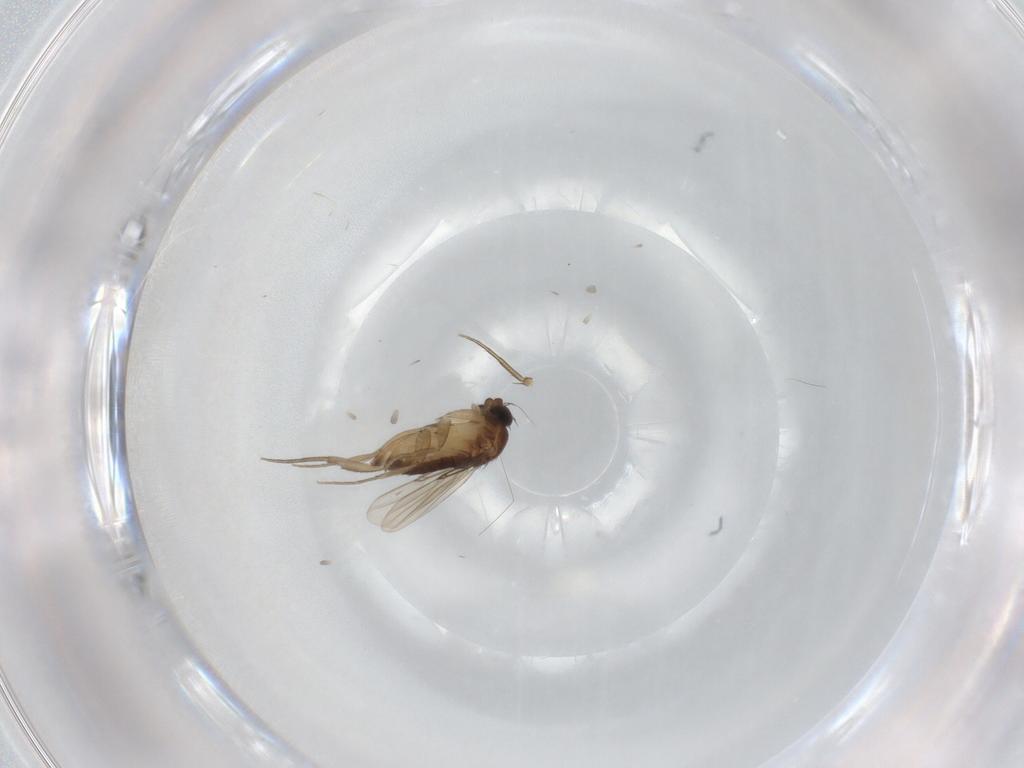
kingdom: Animalia
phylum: Arthropoda
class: Insecta
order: Diptera
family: Phoridae
